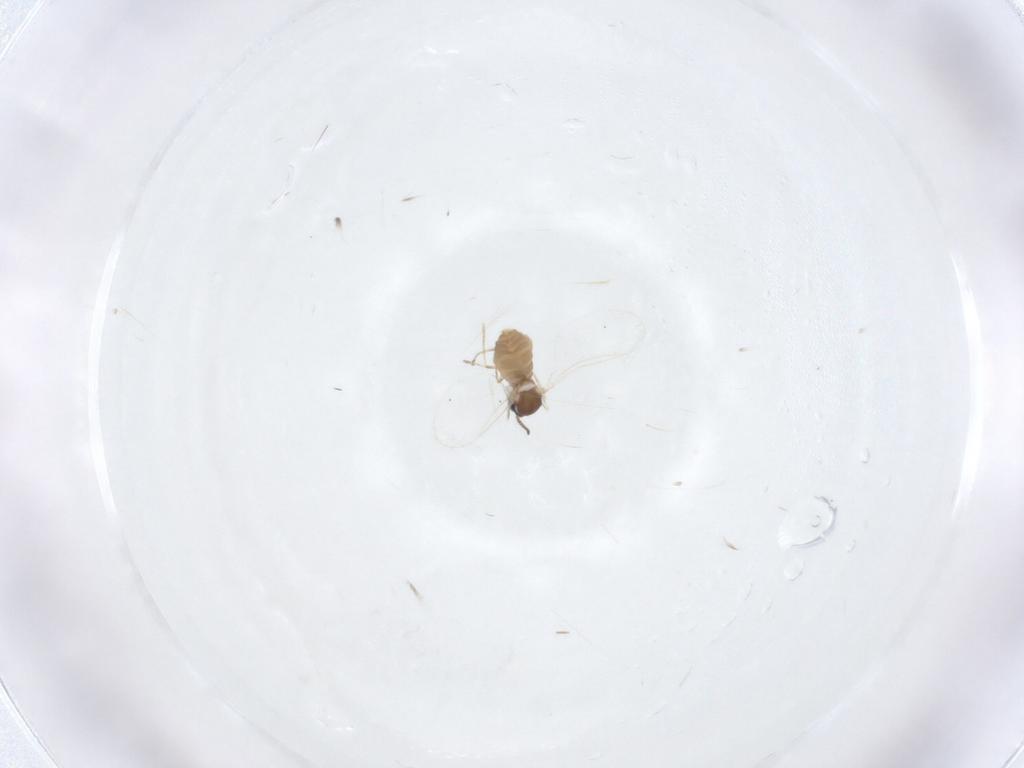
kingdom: Animalia
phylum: Arthropoda
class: Insecta
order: Diptera
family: Cecidomyiidae
